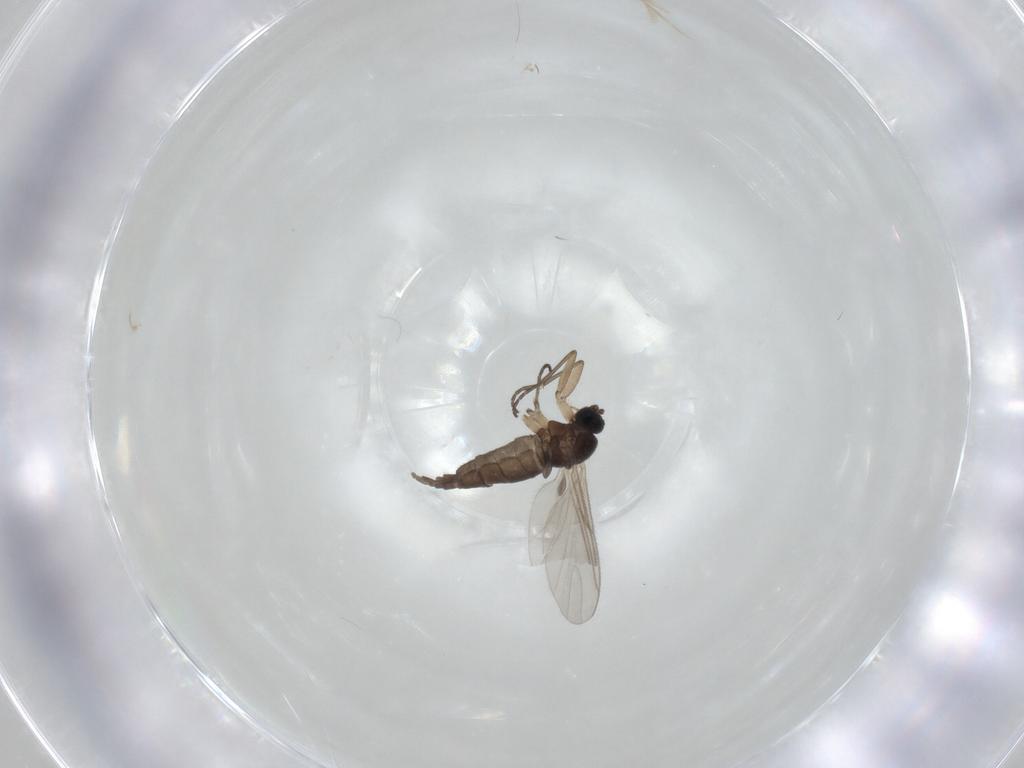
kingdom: Animalia
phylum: Arthropoda
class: Insecta
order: Diptera
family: Sciaridae
